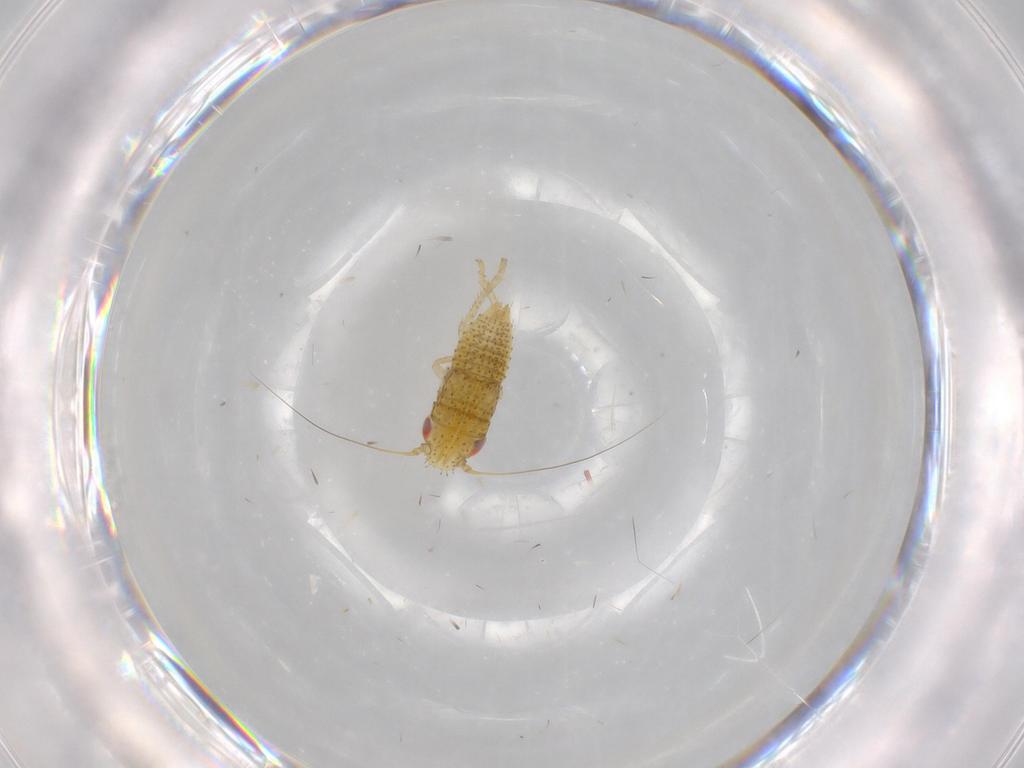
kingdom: Animalia
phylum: Arthropoda
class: Insecta
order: Hemiptera
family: Cicadellidae
